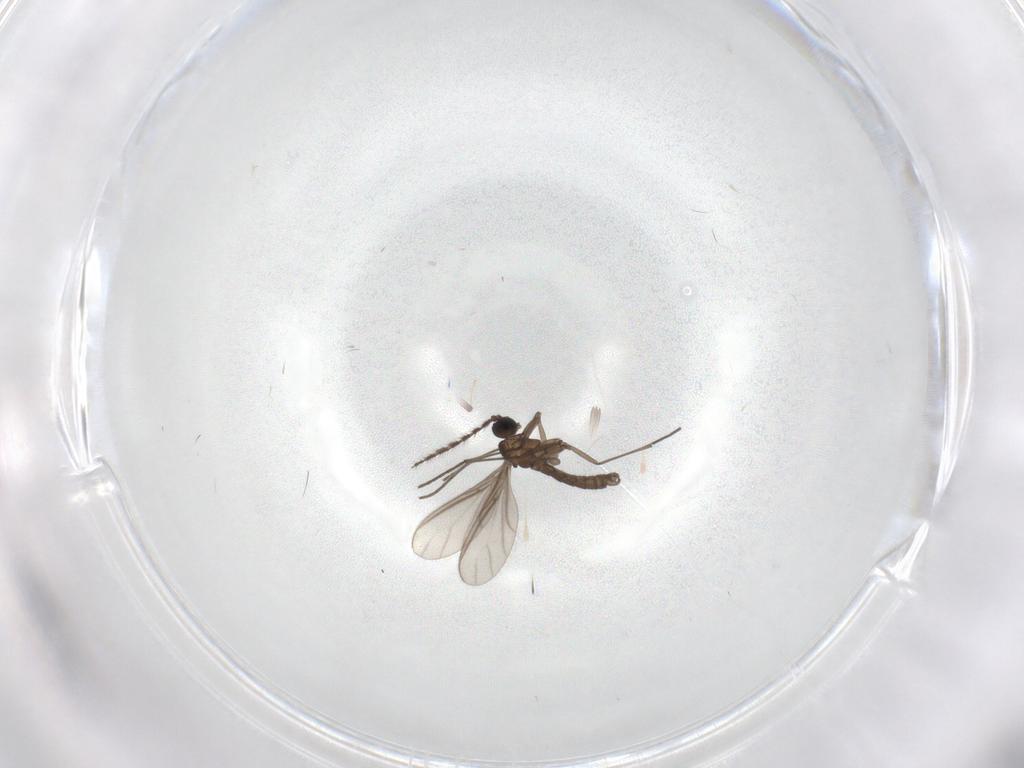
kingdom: Animalia
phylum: Arthropoda
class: Insecta
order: Diptera
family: Sciaridae
